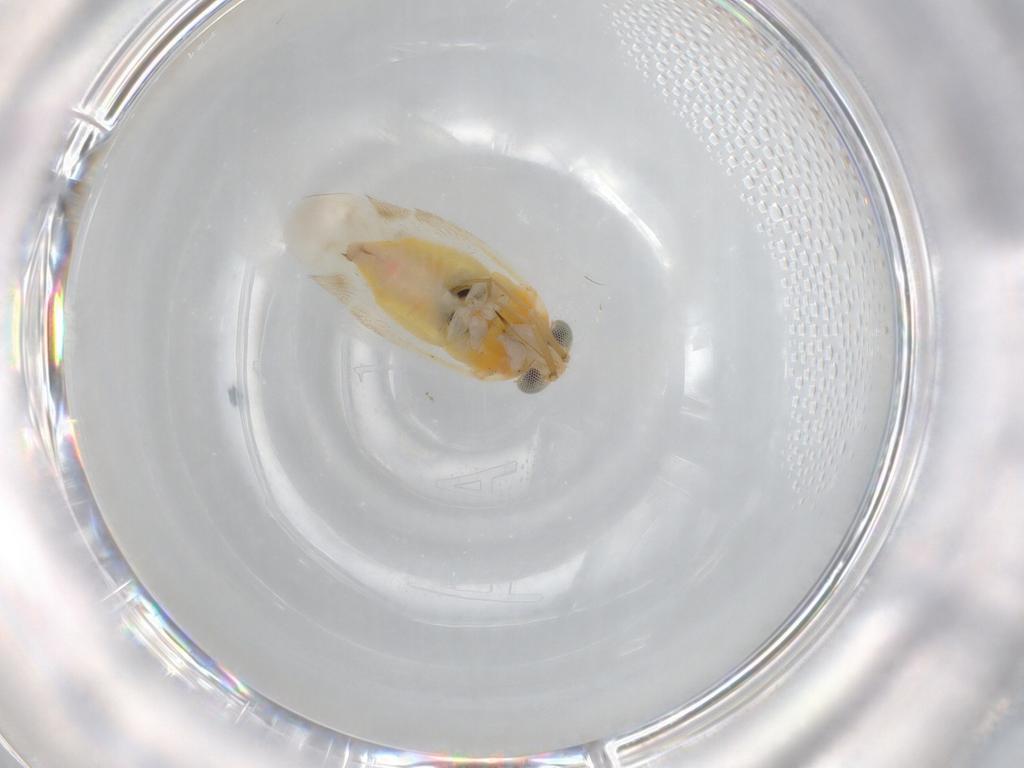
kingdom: Animalia
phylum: Arthropoda
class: Insecta
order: Hemiptera
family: Miridae
